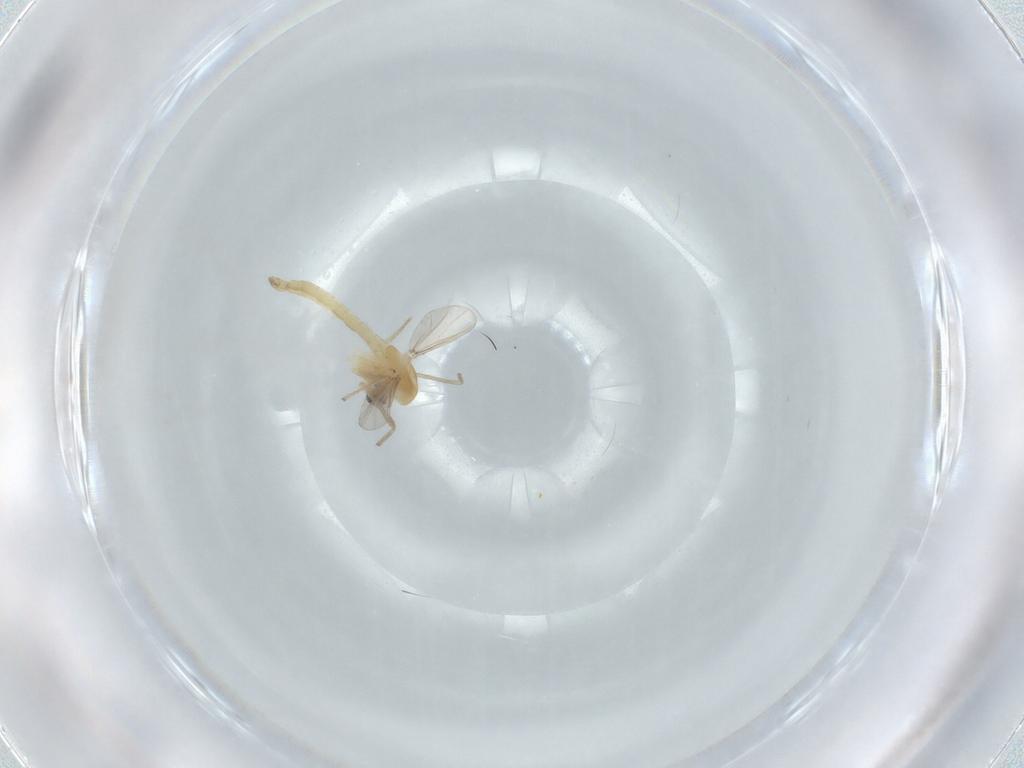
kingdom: Animalia
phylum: Arthropoda
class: Insecta
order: Diptera
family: Chironomidae
